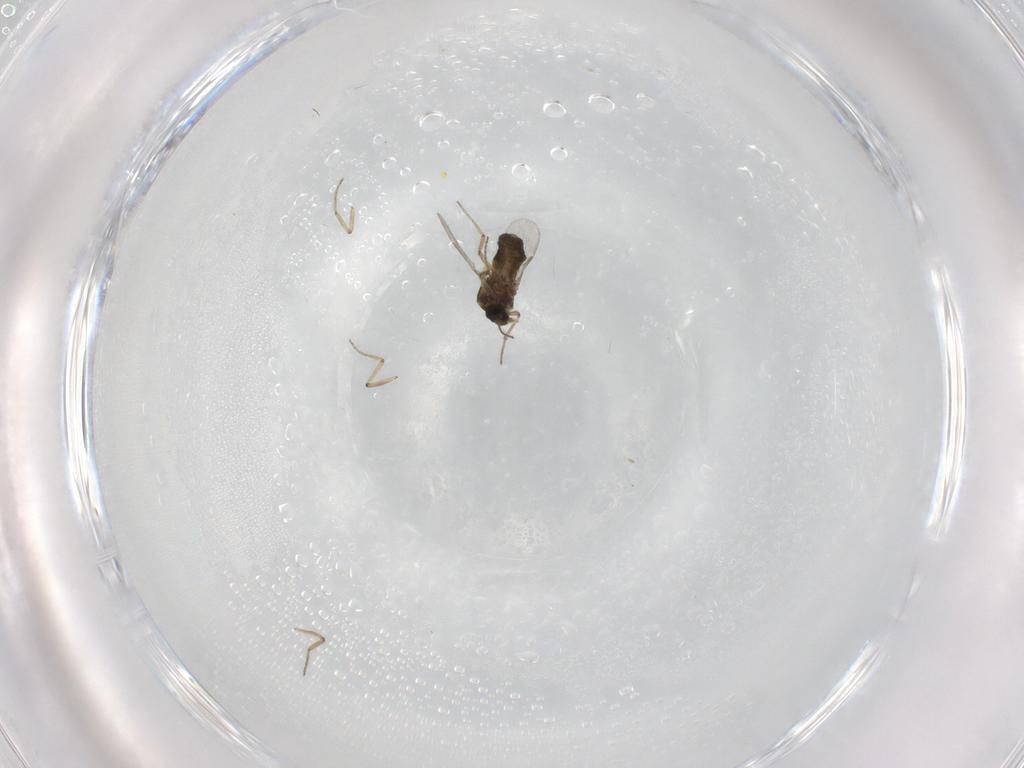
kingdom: Animalia
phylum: Arthropoda
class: Insecta
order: Diptera
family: Ceratopogonidae
